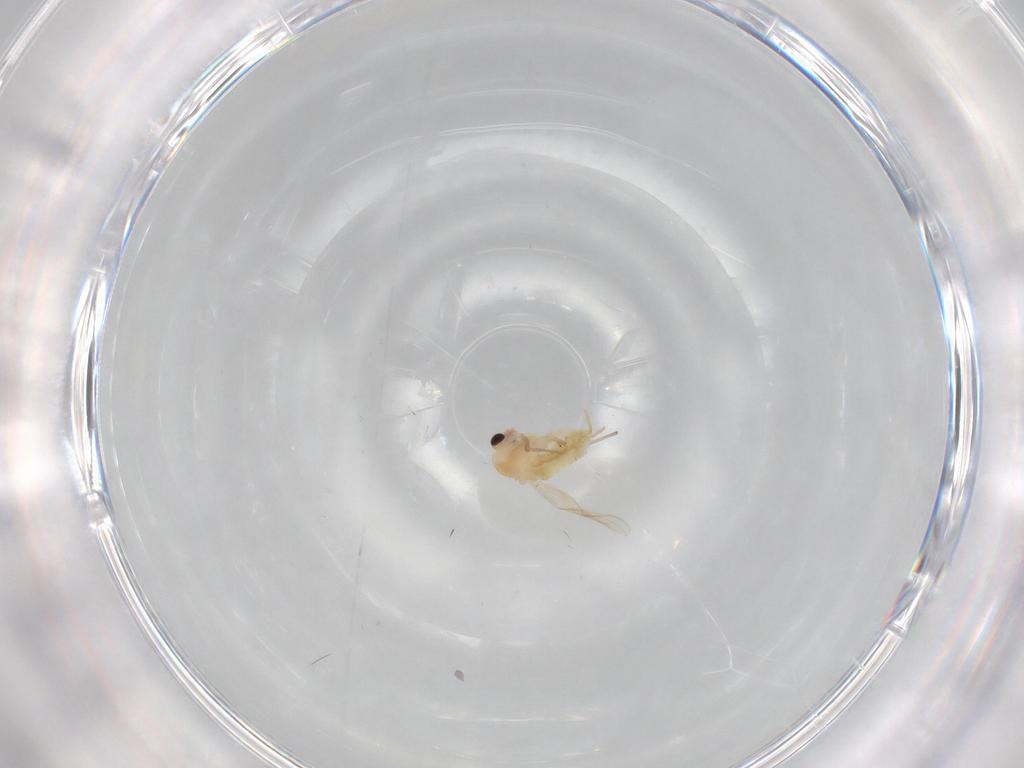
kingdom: Animalia
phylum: Arthropoda
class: Insecta
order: Diptera
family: Chironomidae
